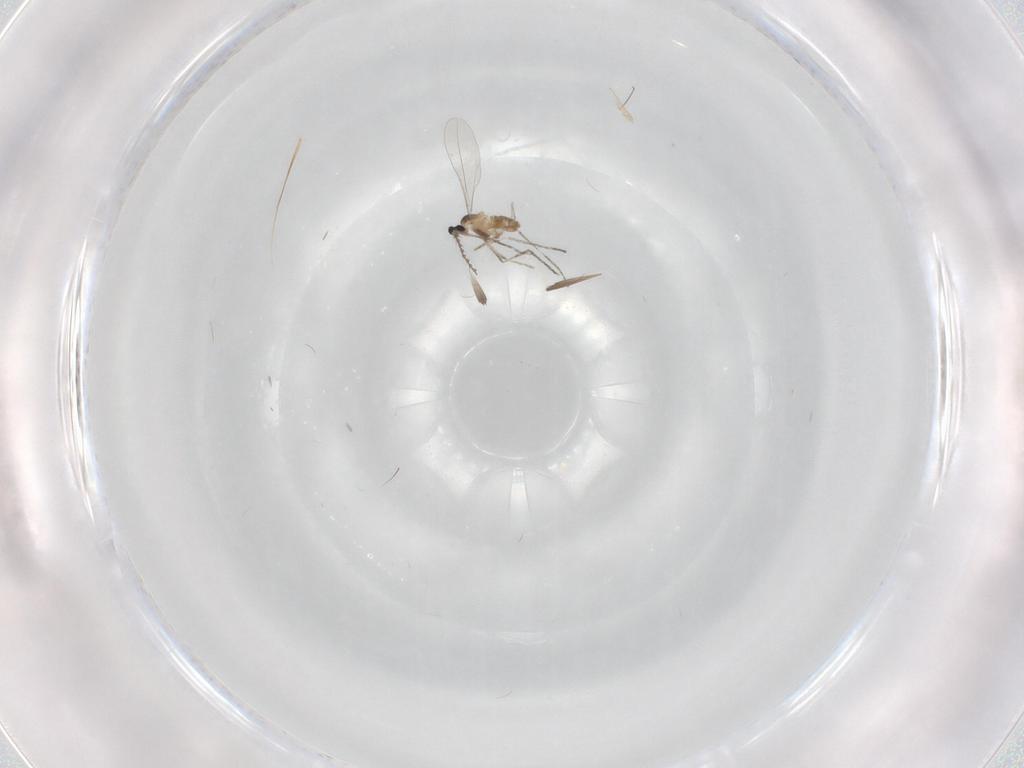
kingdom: Animalia
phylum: Arthropoda
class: Insecta
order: Diptera
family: Cecidomyiidae
